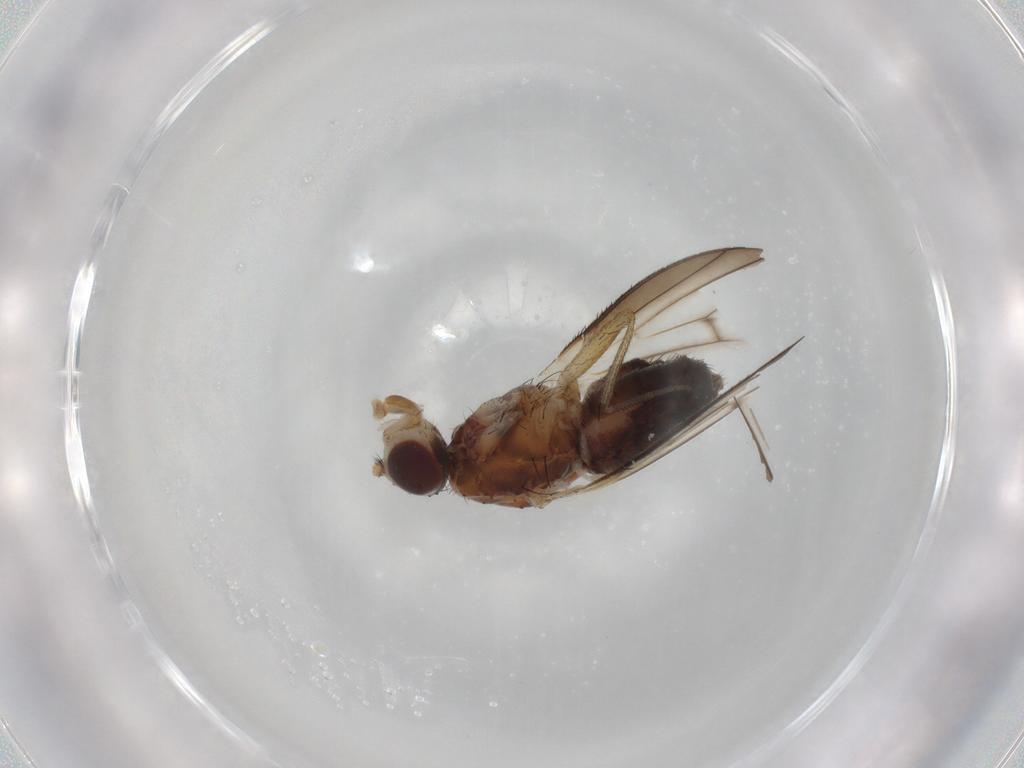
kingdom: Animalia
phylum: Arthropoda
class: Insecta
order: Diptera
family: Heleomyzidae
